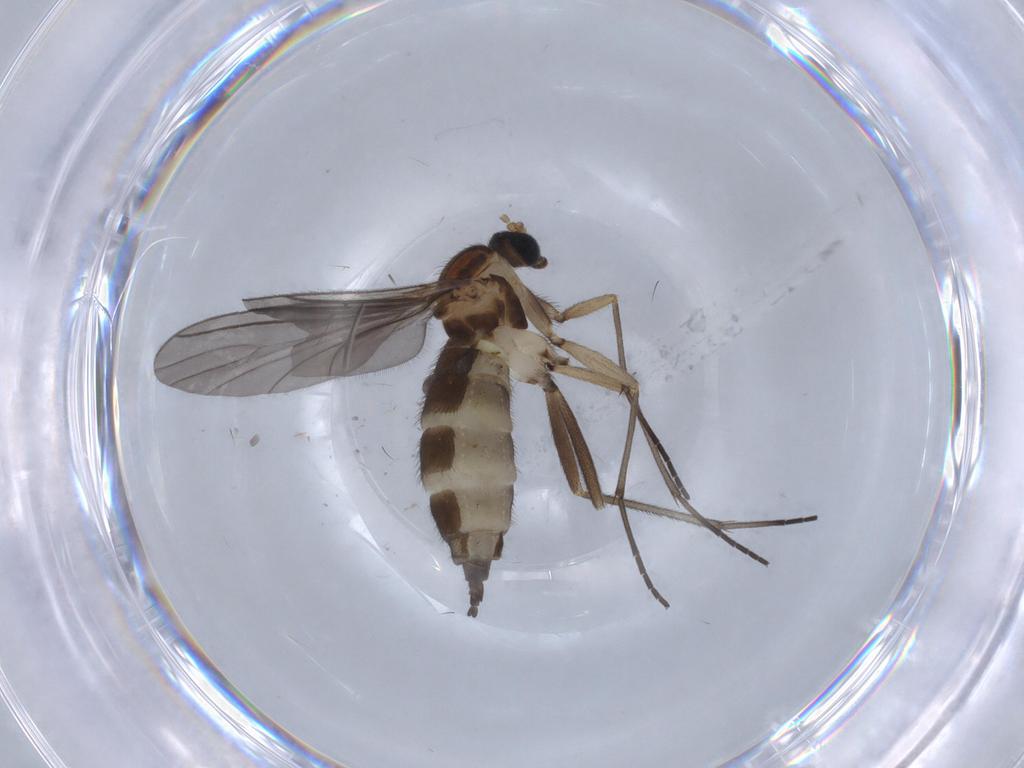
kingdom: Animalia
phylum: Arthropoda
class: Insecta
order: Diptera
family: Sciaridae
